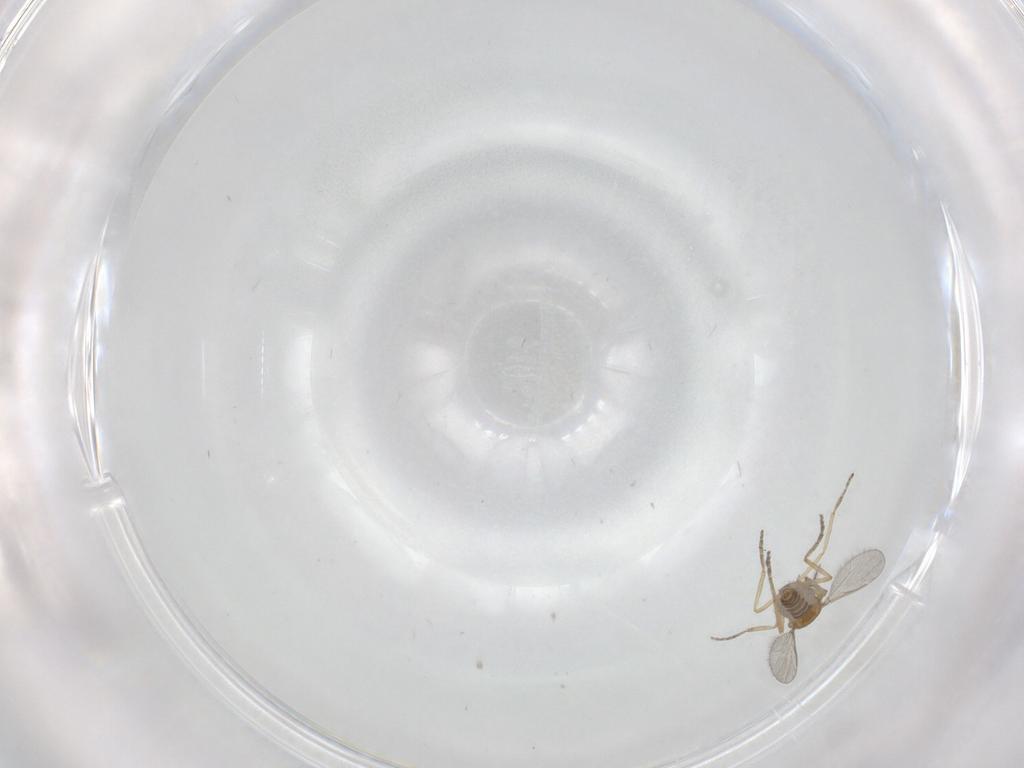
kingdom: Animalia
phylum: Arthropoda
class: Insecta
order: Diptera
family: Ceratopogonidae
